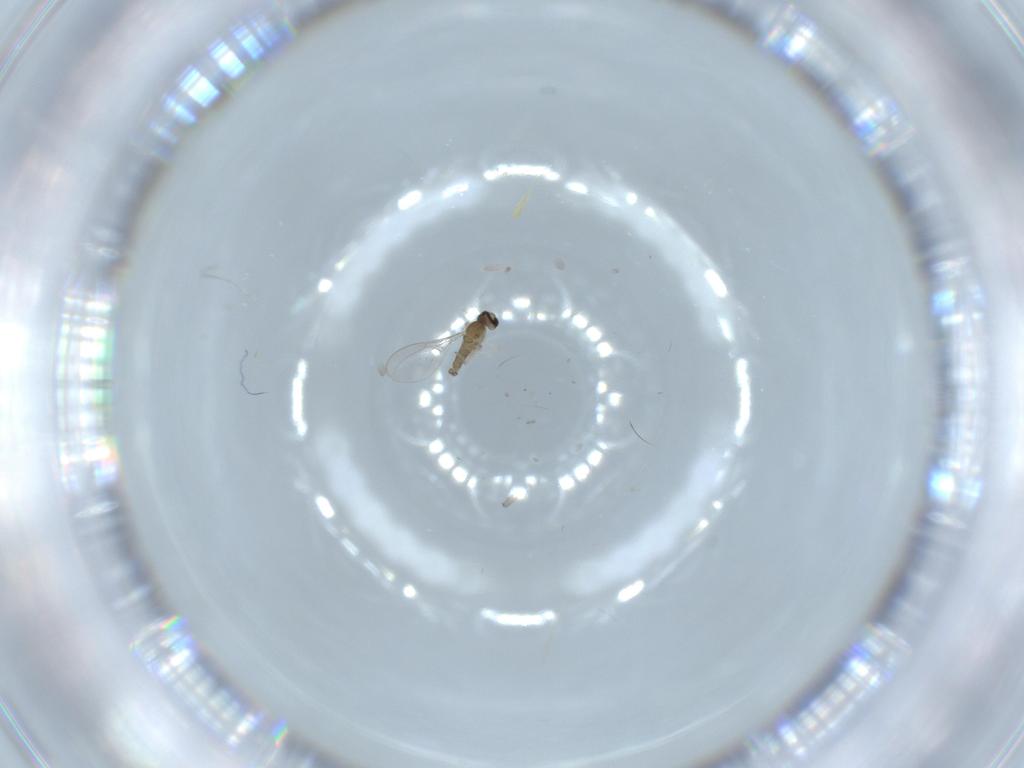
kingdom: Animalia
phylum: Arthropoda
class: Insecta
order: Diptera
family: Cecidomyiidae
